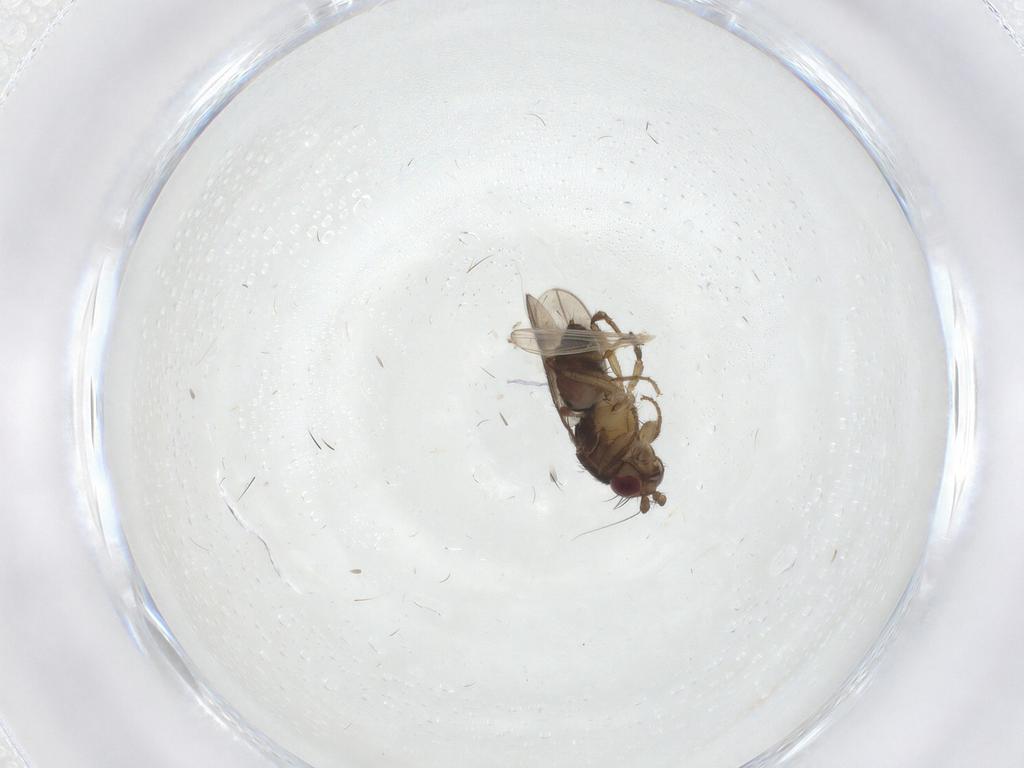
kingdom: Animalia
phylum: Arthropoda
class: Insecta
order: Diptera
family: Sphaeroceridae
